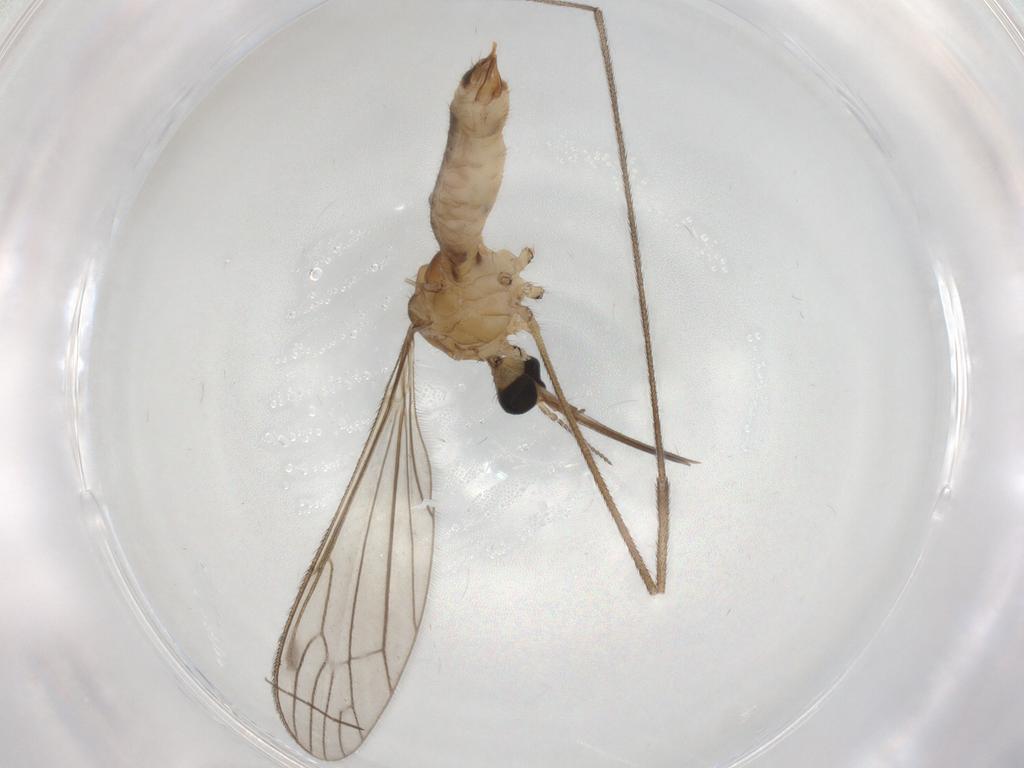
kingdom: Animalia
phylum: Arthropoda
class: Insecta
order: Diptera
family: Limoniidae
